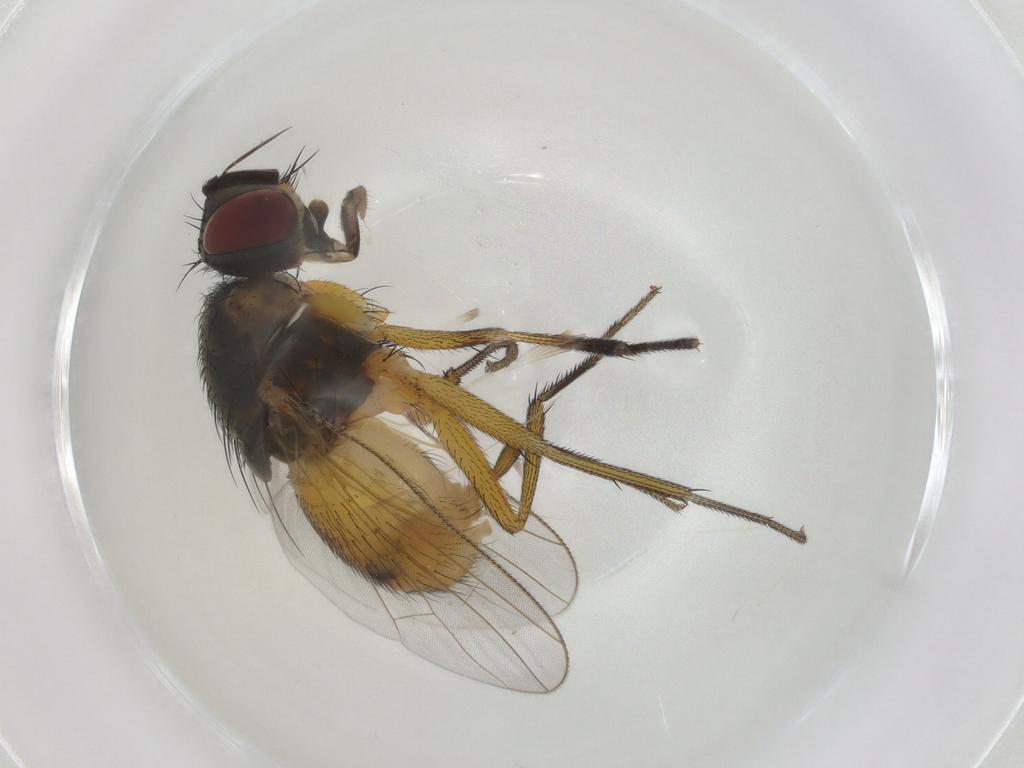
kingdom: Animalia
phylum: Arthropoda
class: Insecta
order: Diptera
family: Muscidae
